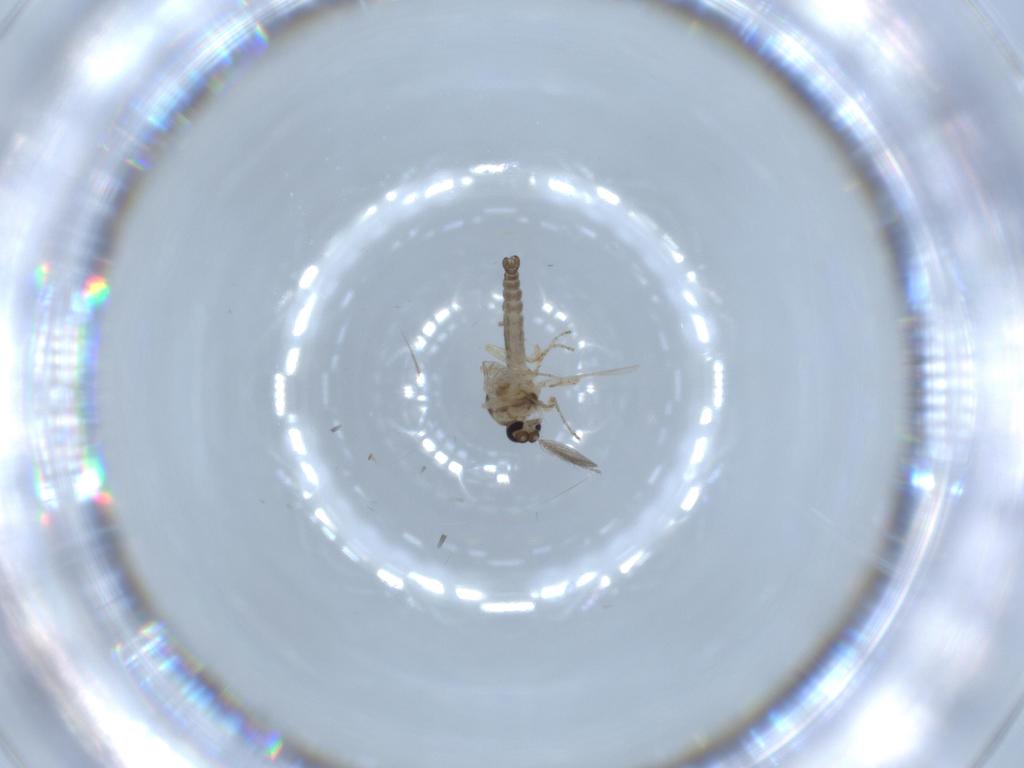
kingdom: Animalia
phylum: Arthropoda
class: Insecta
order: Diptera
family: Sciaridae
